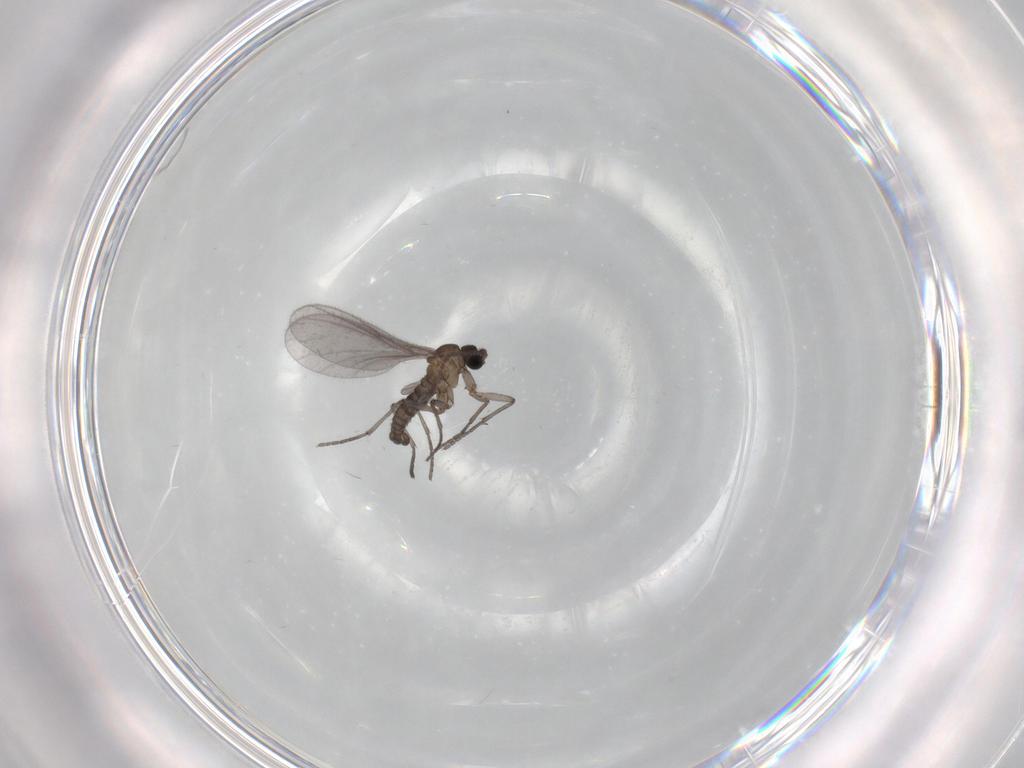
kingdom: Animalia
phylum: Arthropoda
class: Insecta
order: Diptera
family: Sciaridae
